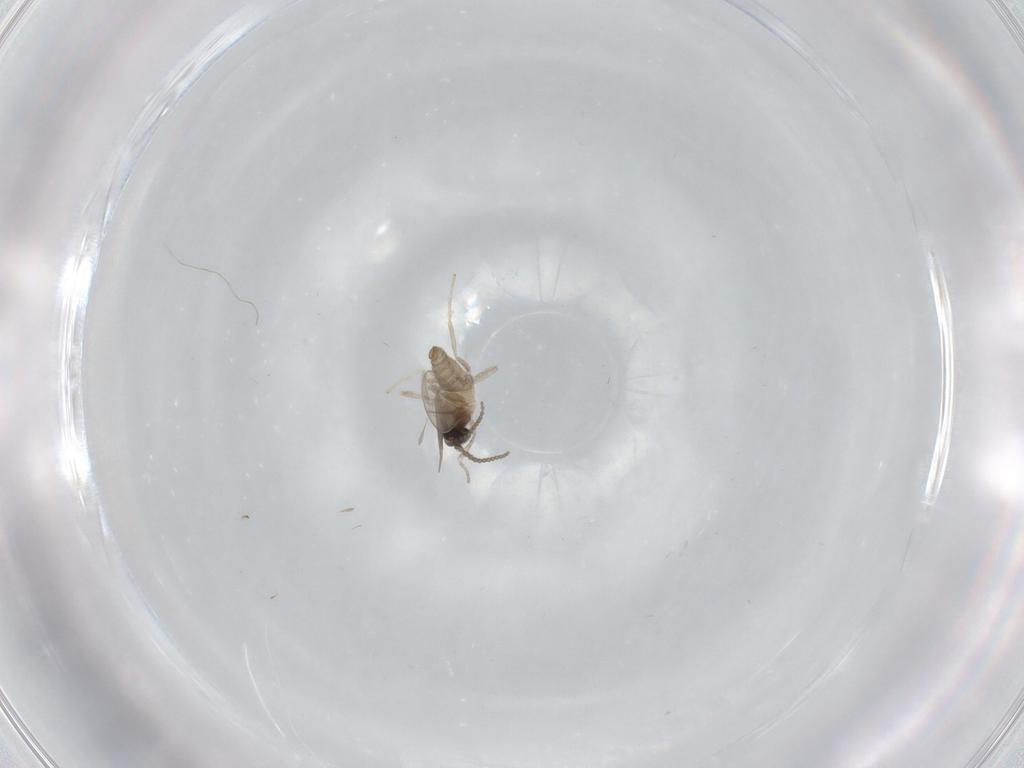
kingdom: Animalia
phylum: Arthropoda
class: Insecta
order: Diptera
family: Cecidomyiidae
